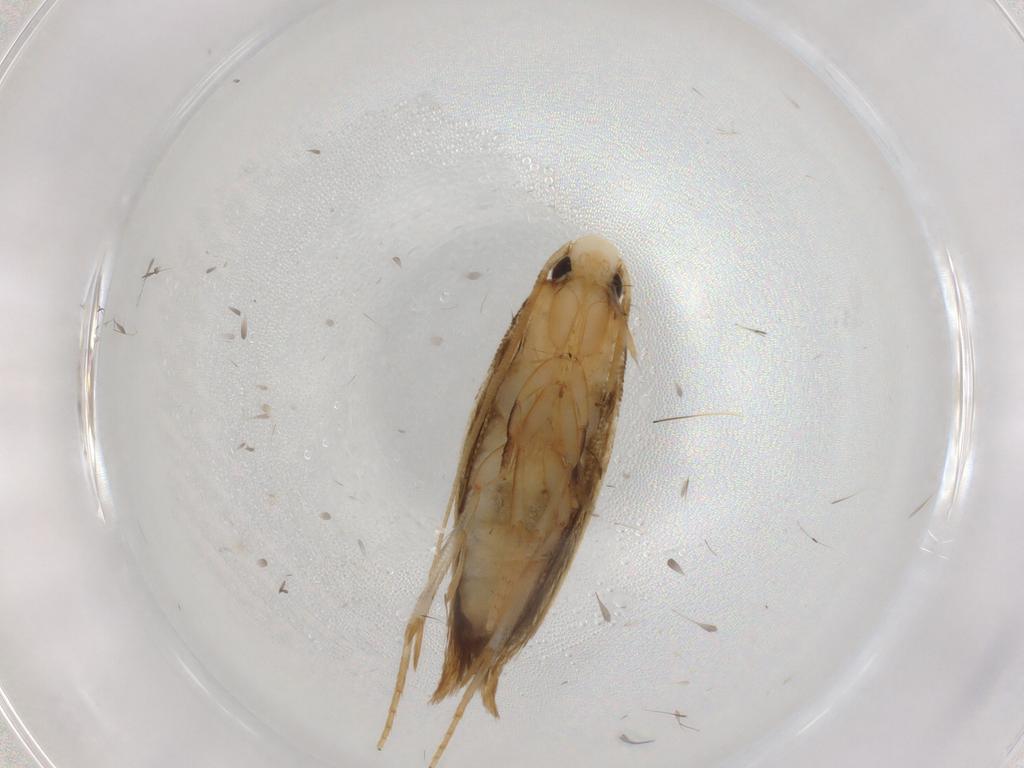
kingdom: Animalia
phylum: Arthropoda
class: Insecta
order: Lepidoptera
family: Tineidae
